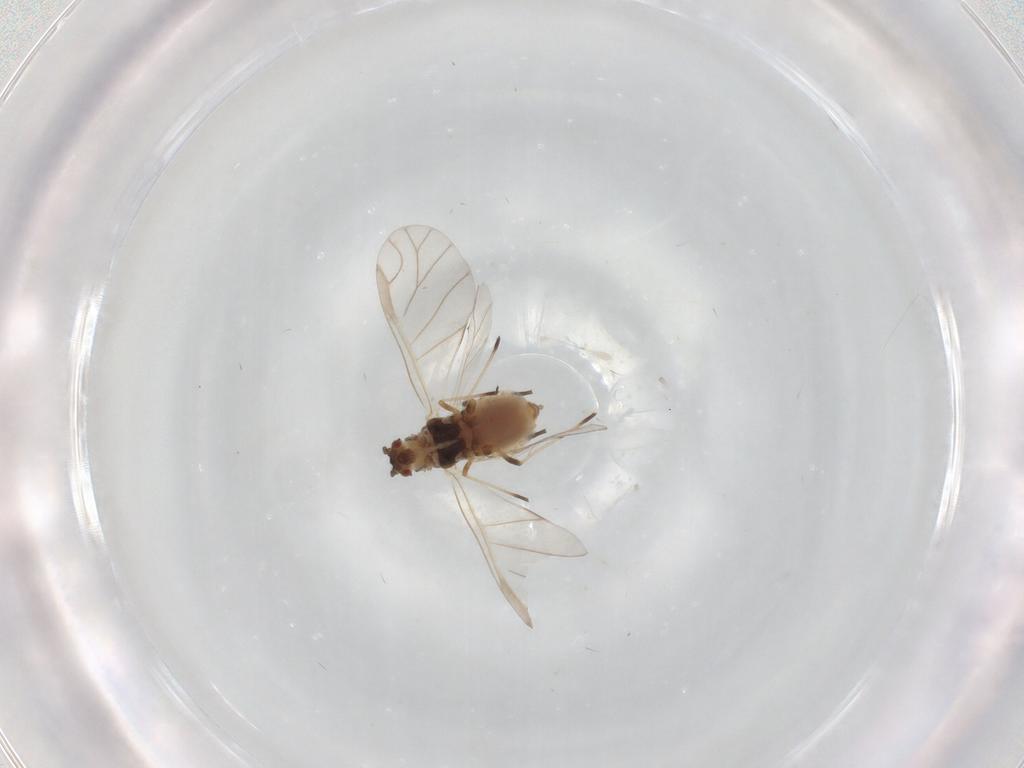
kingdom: Animalia
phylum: Arthropoda
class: Insecta
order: Hemiptera
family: Aphididae
